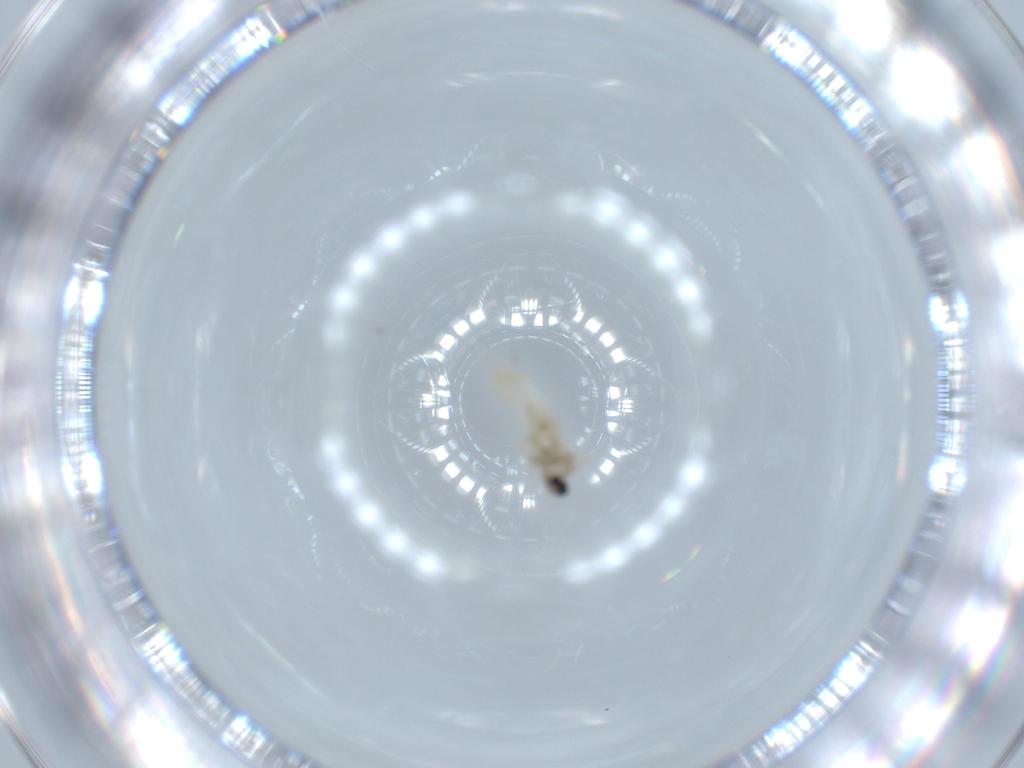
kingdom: Animalia
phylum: Arthropoda
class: Insecta
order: Diptera
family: Cecidomyiidae
